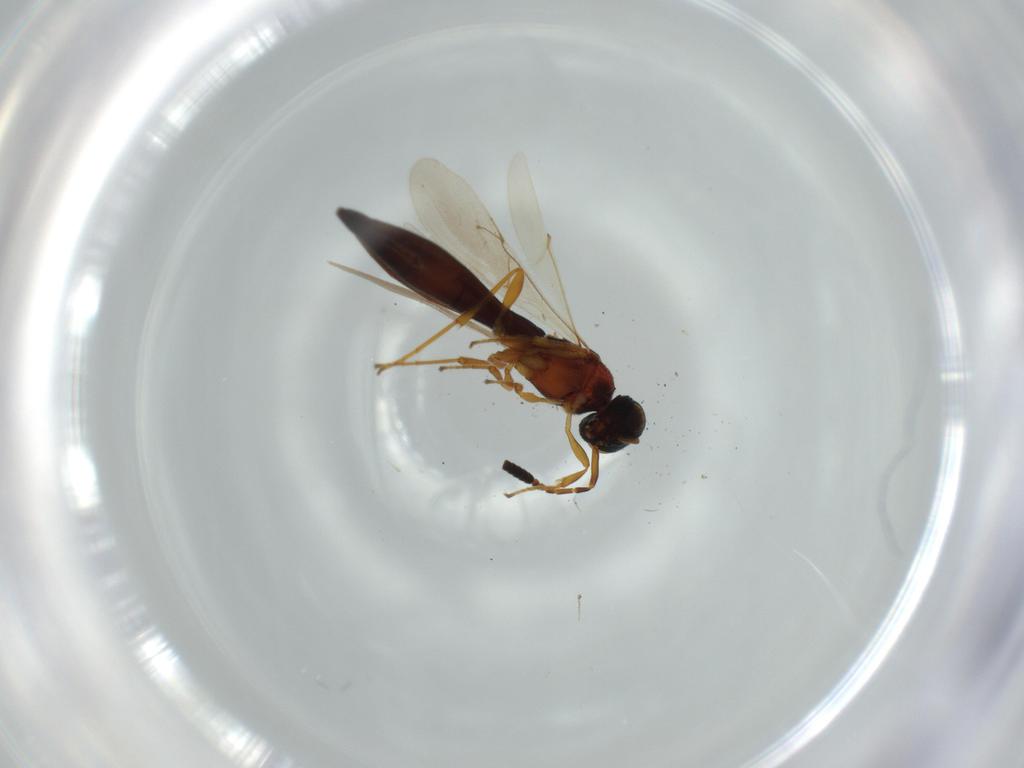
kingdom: Animalia
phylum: Arthropoda
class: Insecta
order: Hymenoptera
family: Scelionidae
